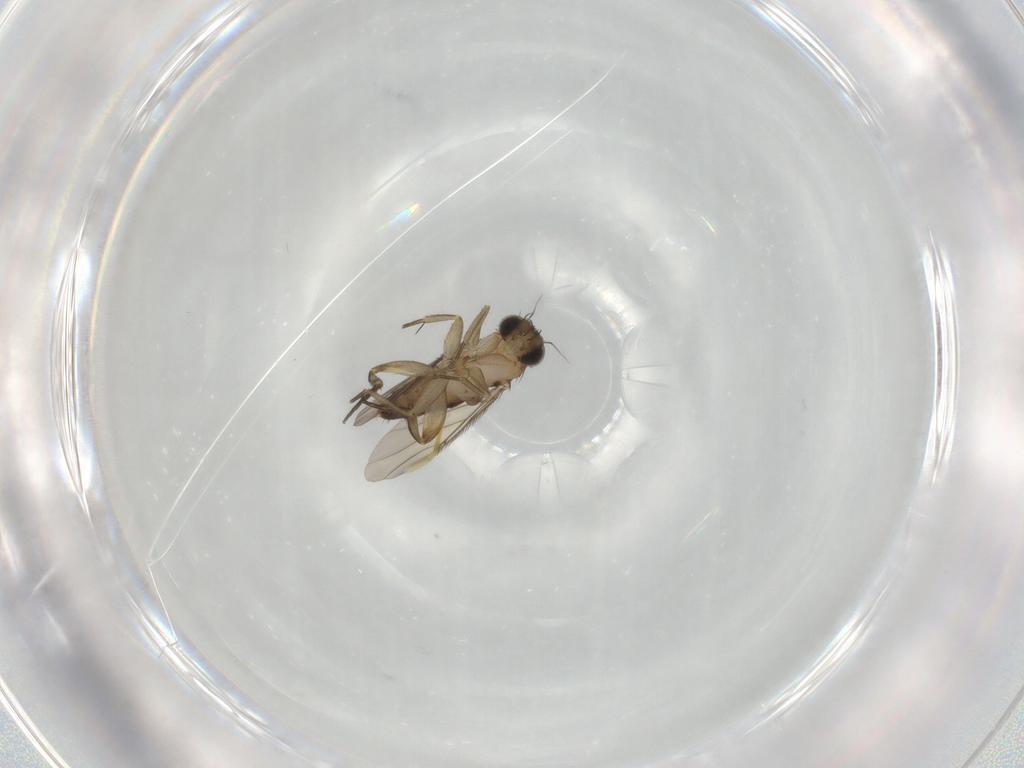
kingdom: Animalia
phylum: Arthropoda
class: Insecta
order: Diptera
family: Phoridae
